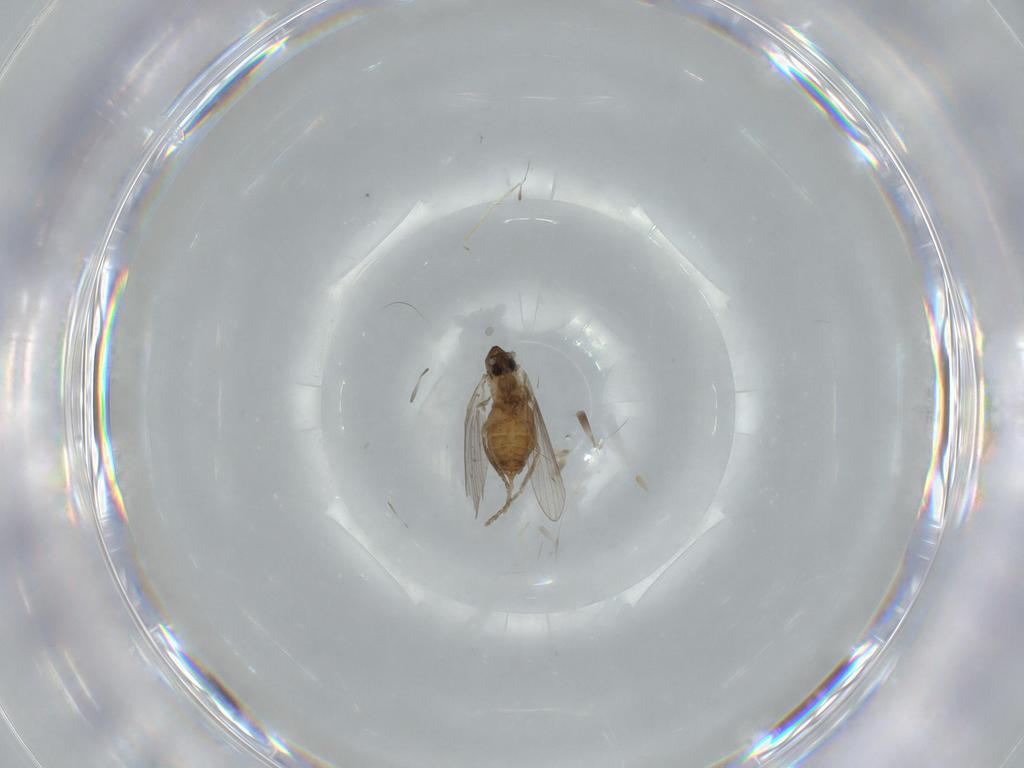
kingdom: Animalia
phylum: Arthropoda
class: Insecta
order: Diptera
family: Psychodidae
